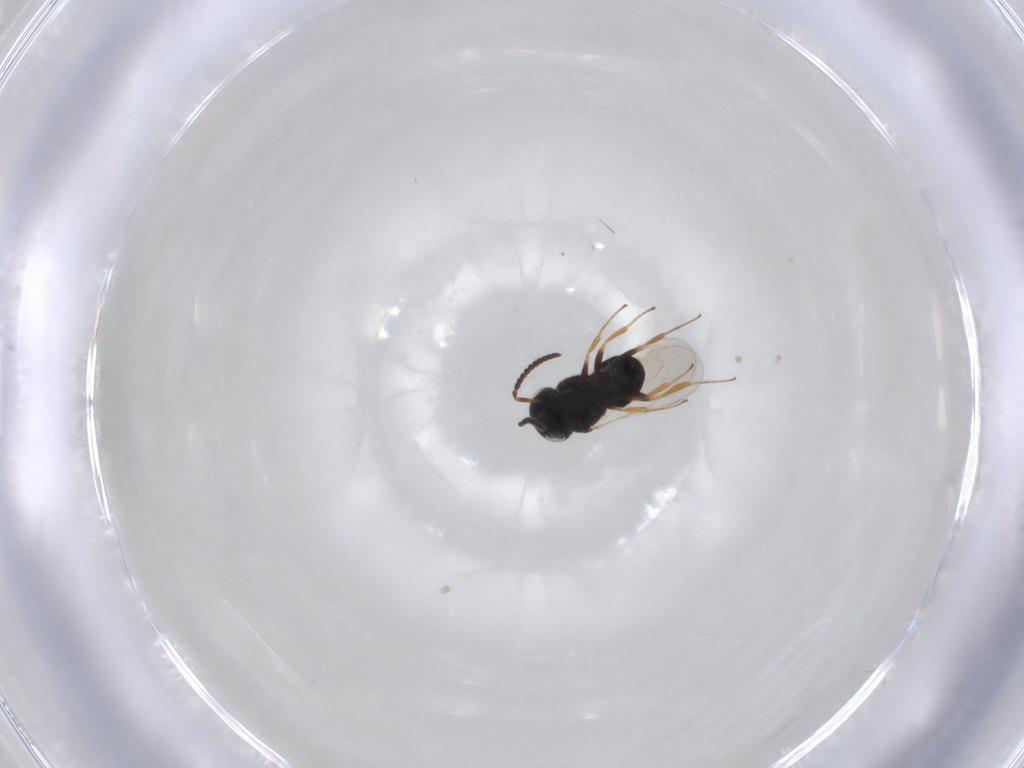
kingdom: Animalia
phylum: Arthropoda
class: Insecta
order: Hymenoptera
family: Scelionidae
